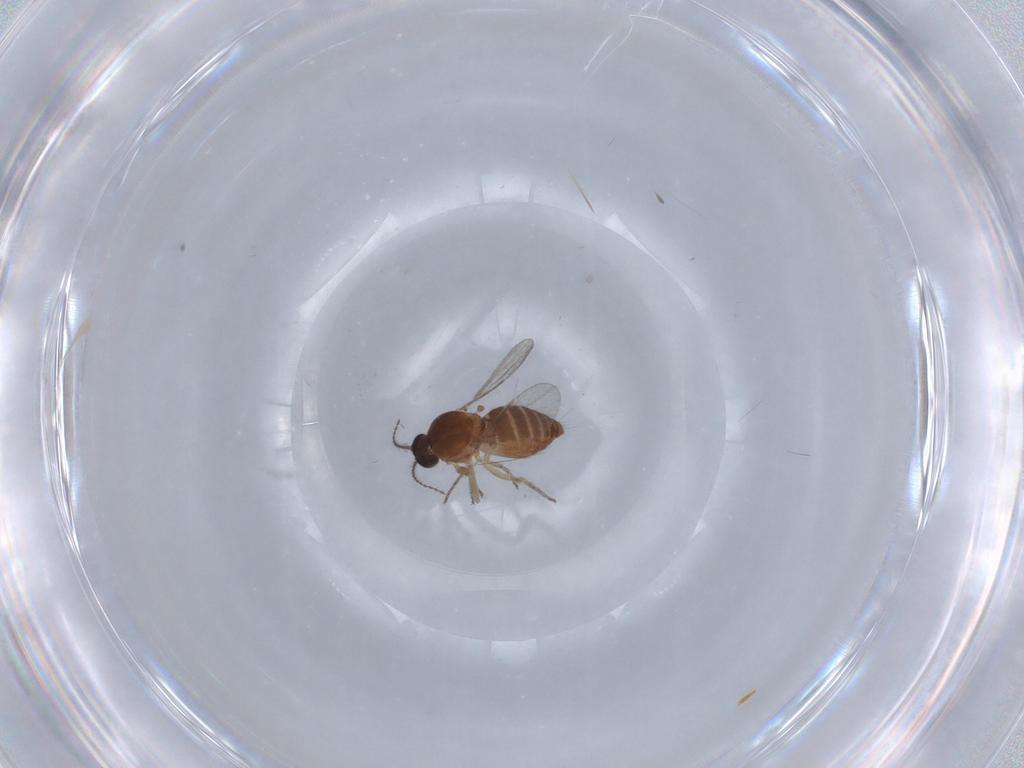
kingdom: Animalia
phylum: Arthropoda
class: Insecta
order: Diptera
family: Ceratopogonidae
